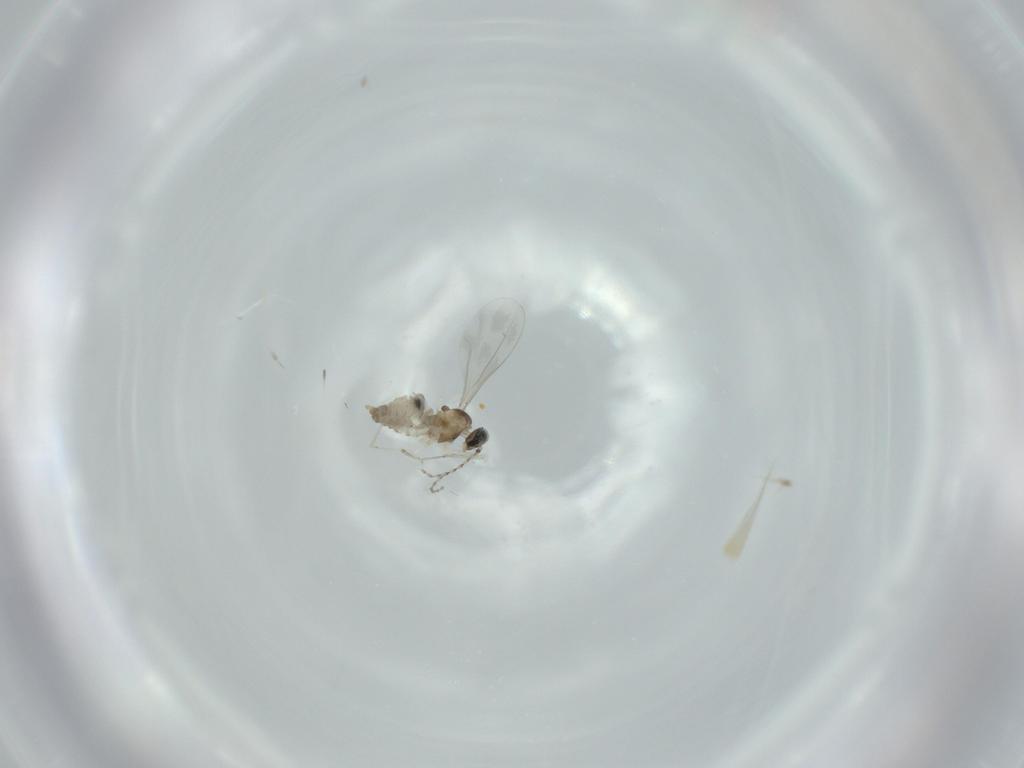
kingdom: Animalia
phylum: Arthropoda
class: Insecta
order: Diptera
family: Cecidomyiidae
